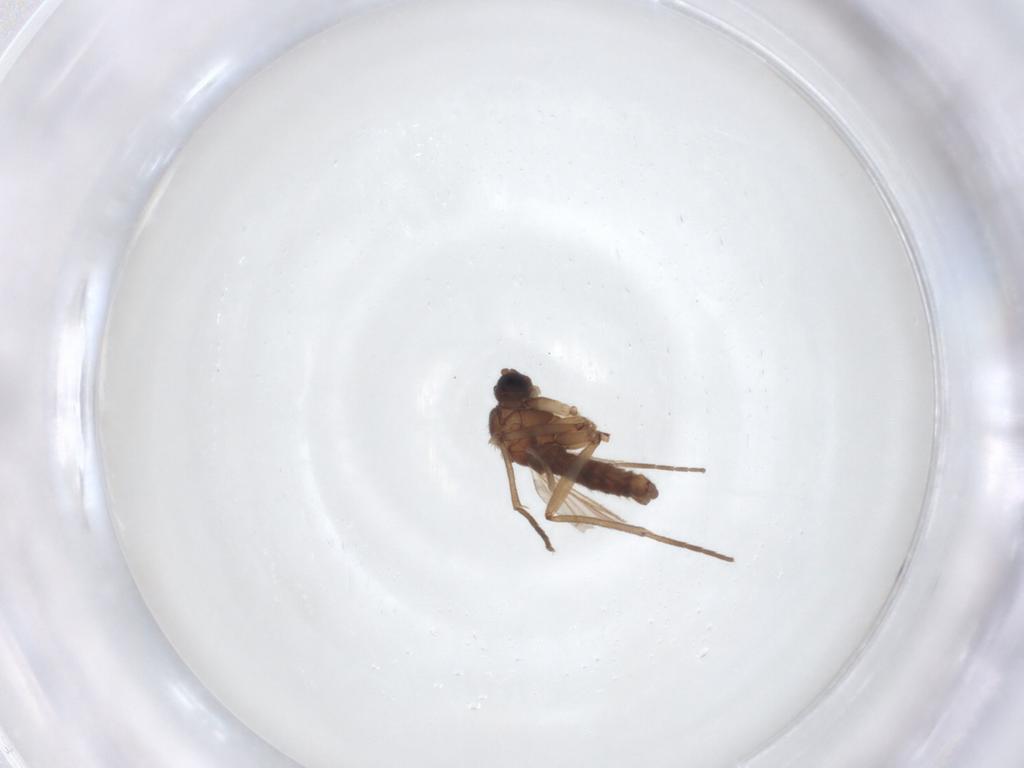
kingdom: Animalia
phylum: Arthropoda
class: Insecta
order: Diptera
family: Sciaridae
